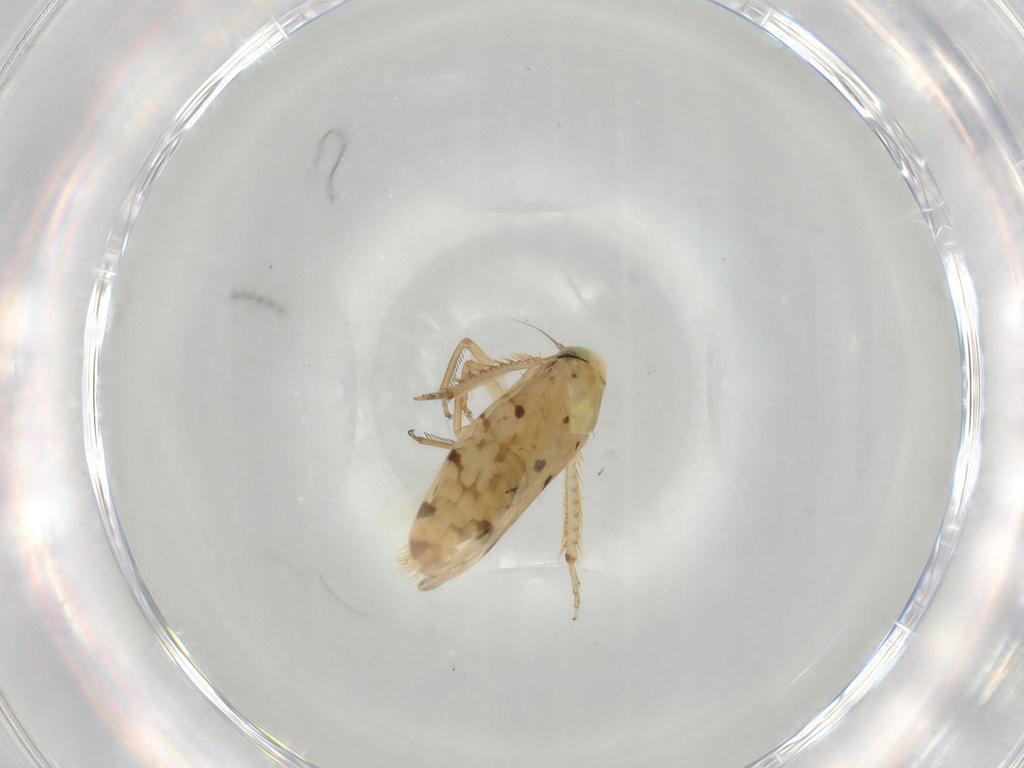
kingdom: Animalia
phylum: Arthropoda
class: Insecta
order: Hemiptera
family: Cicadellidae
